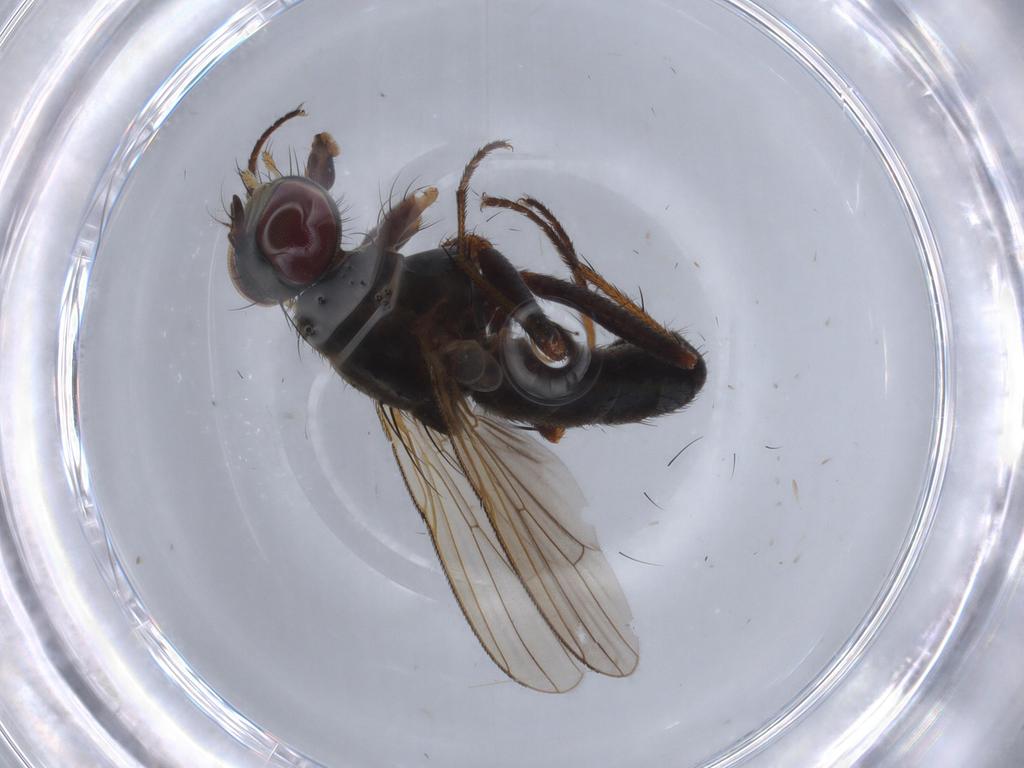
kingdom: Animalia
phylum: Arthropoda
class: Insecta
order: Diptera
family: Muscidae
